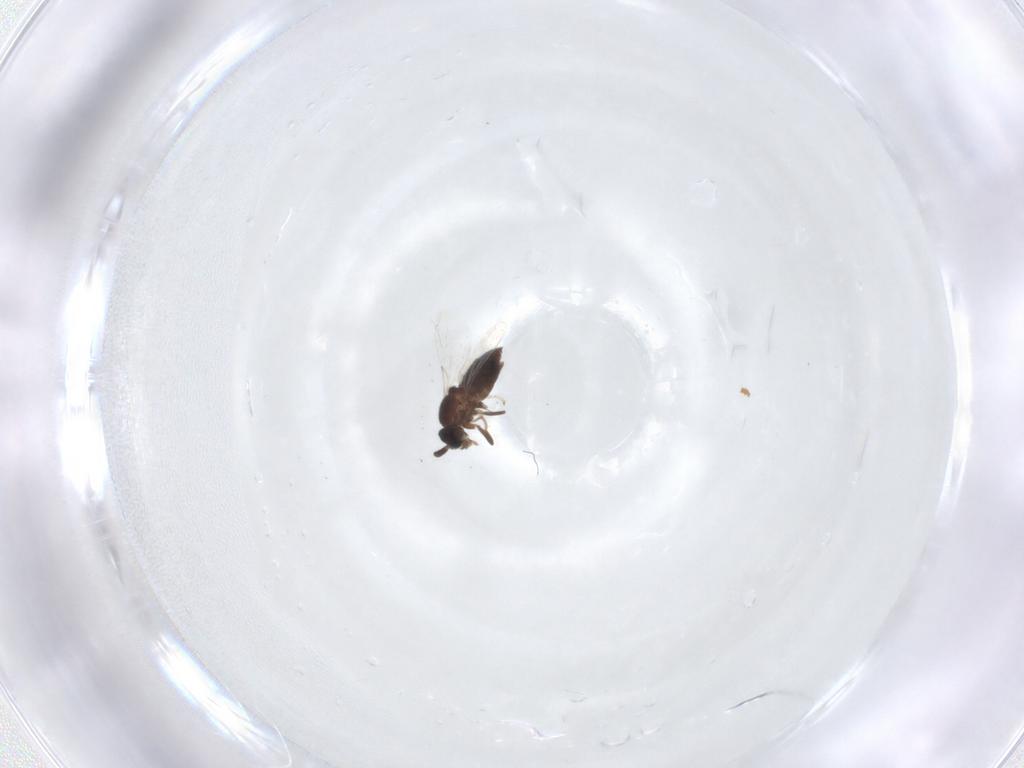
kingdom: Animalia
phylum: Arthropoda
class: Insecta
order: Diptera
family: Scatopsidae
